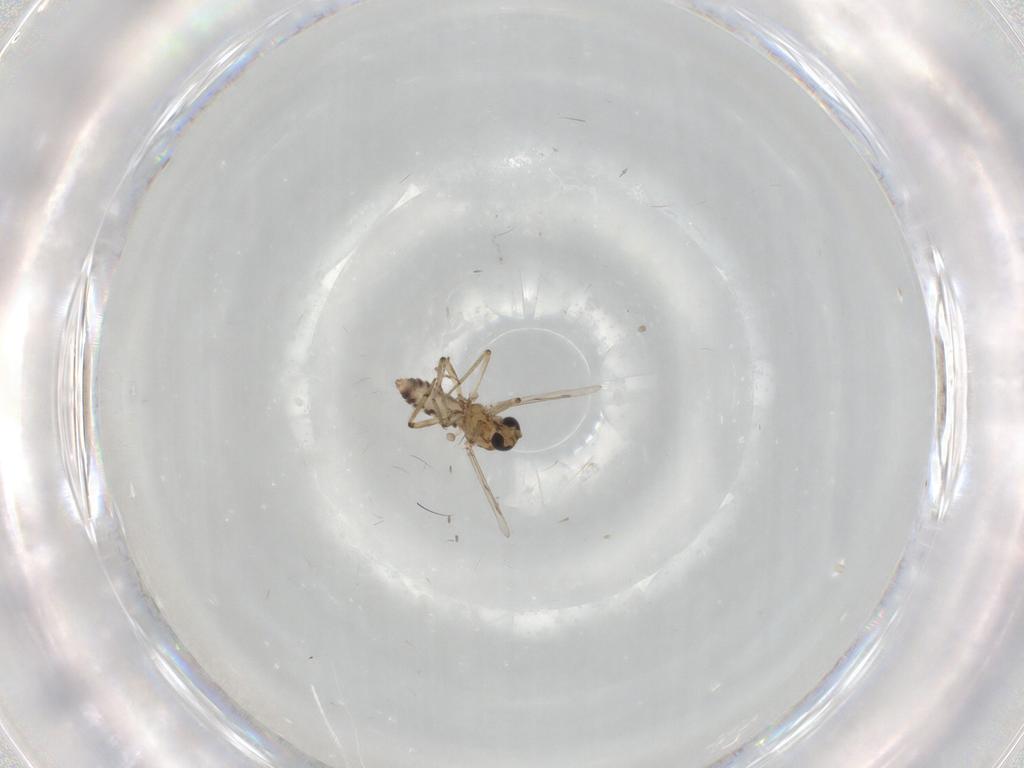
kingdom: Animalia
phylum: Arthropoda
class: Insecta
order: Diptera
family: Ceratopogonidae
